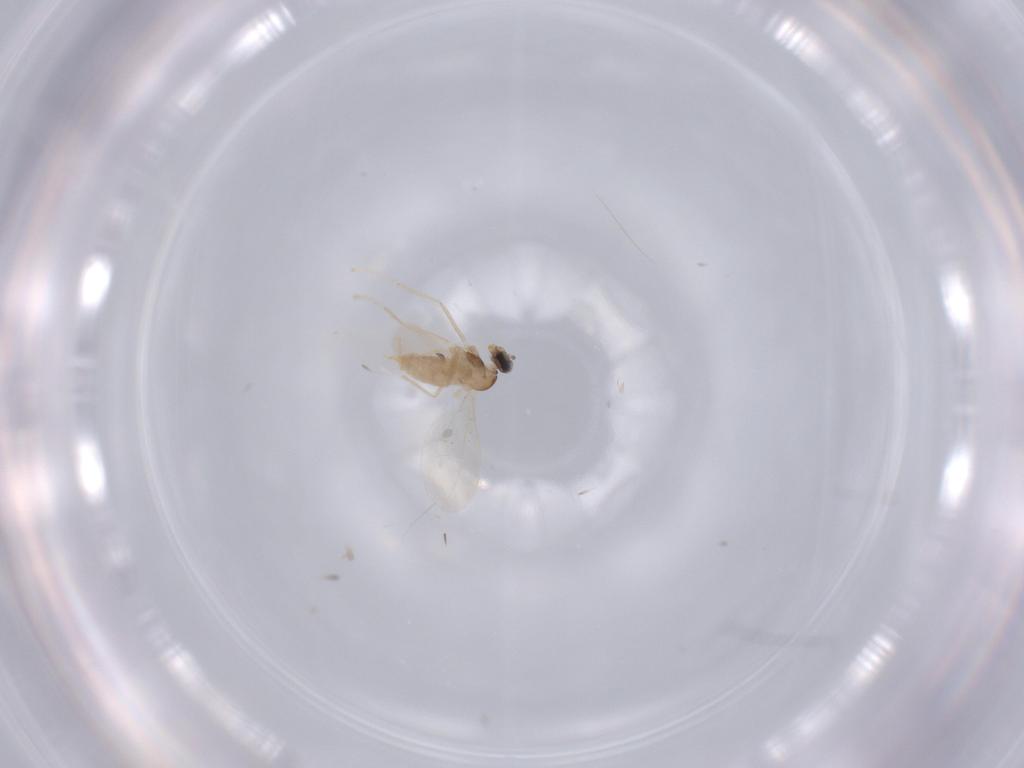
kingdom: Animalia
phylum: Arthropoda
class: Insecta
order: Diptera
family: Cecidomyiidae
